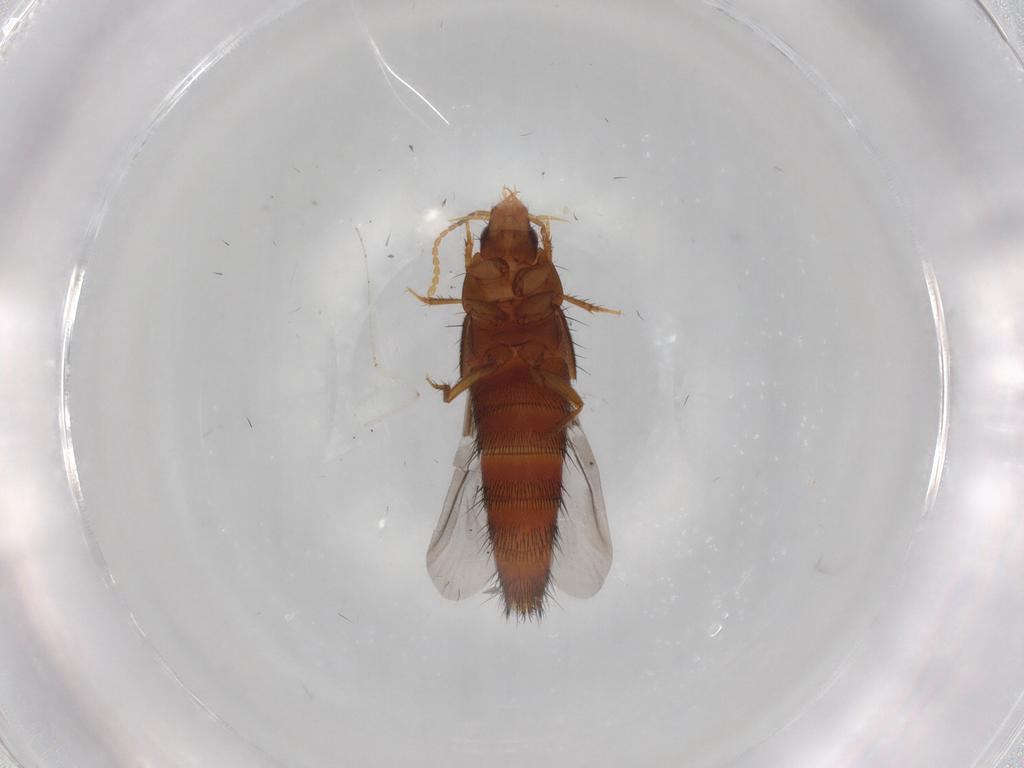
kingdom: Animalia
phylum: Arthropoda
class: Insecta
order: Coleoptera
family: Staphylinidae
